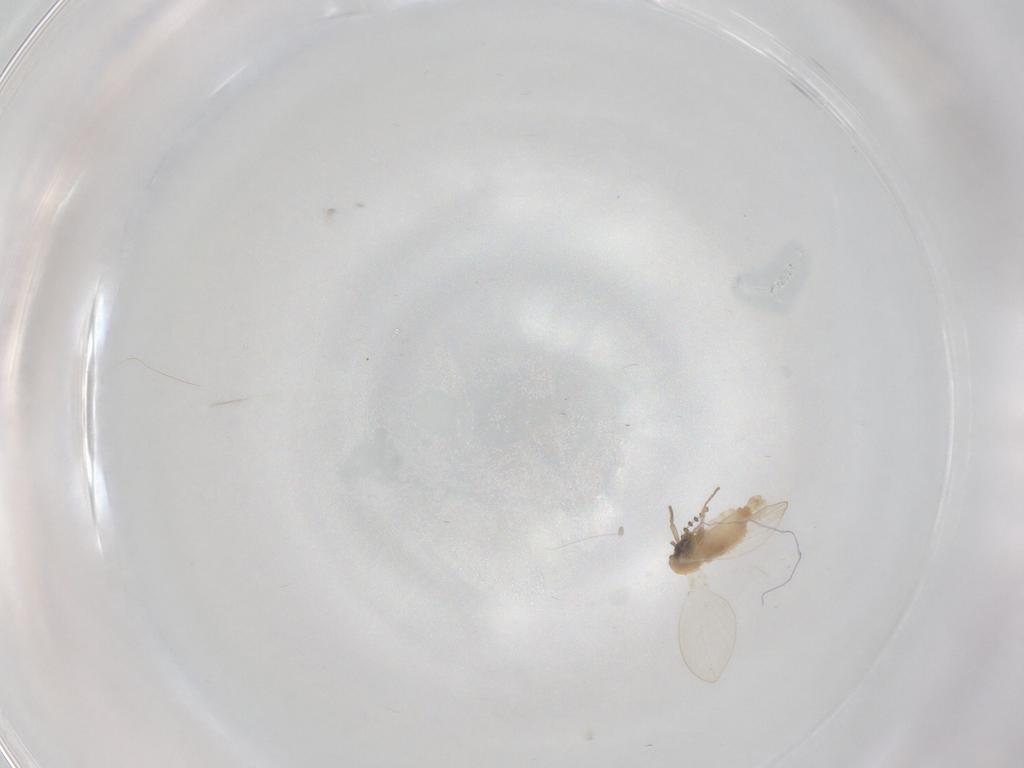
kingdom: Animalia
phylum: Arthropoda
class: Insecta
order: Diptera
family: Psychodidae
